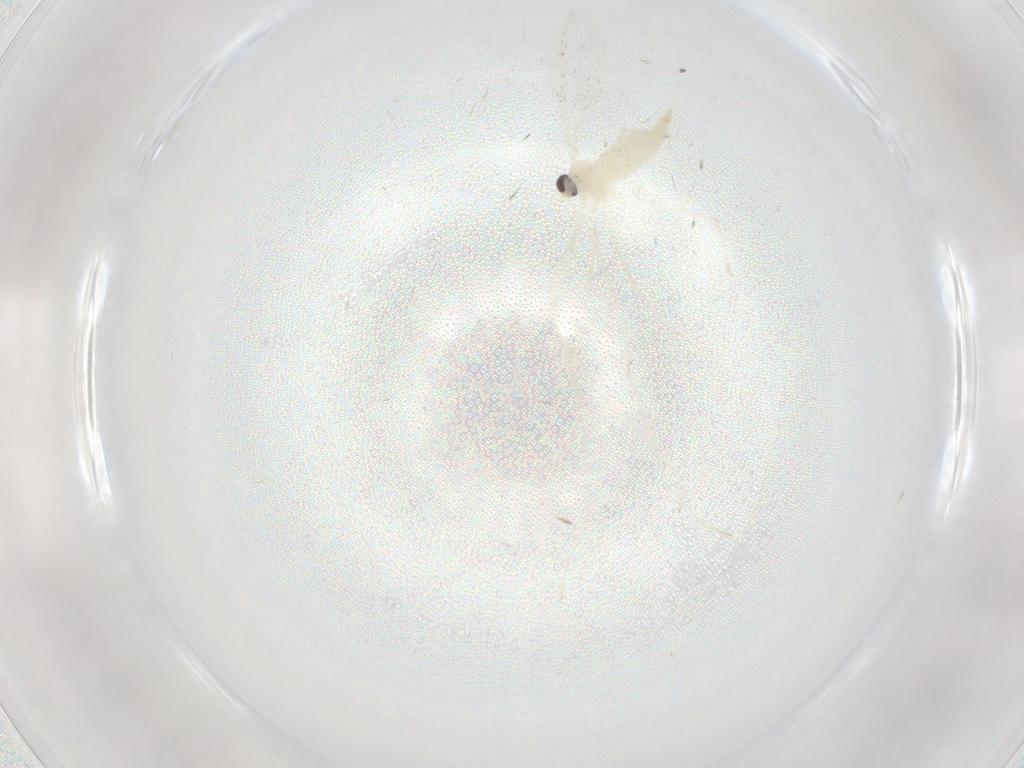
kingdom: Animalia
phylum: Arthropoda
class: Insecta
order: Diptera
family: Cecidomyiidae
